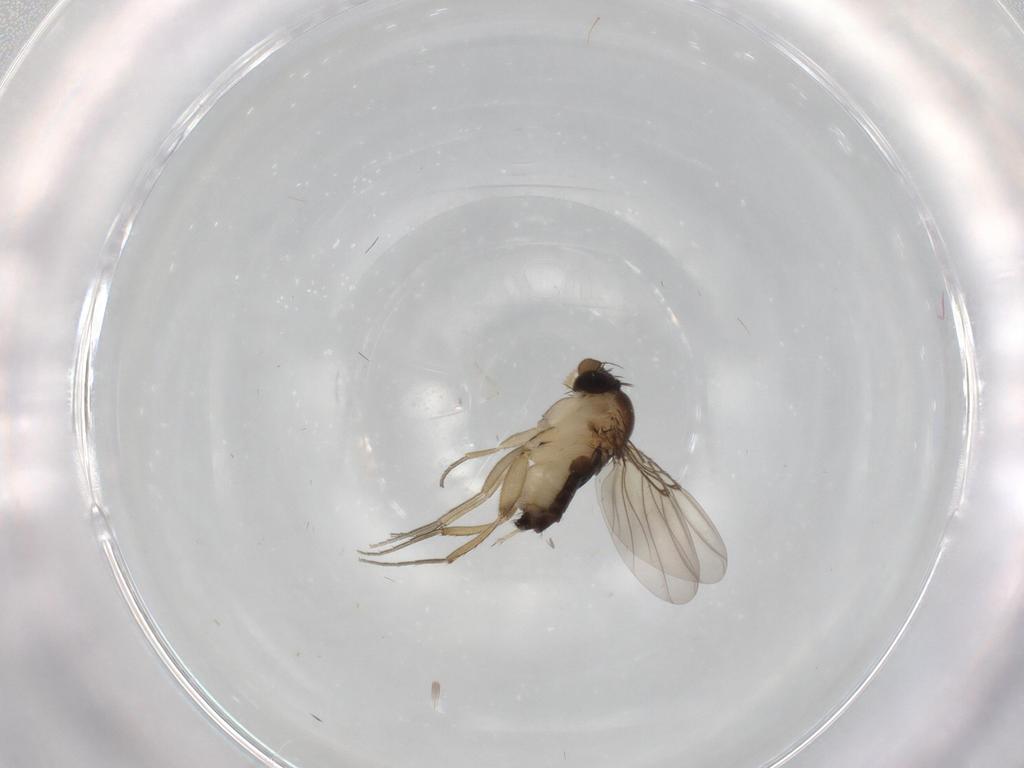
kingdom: Animalia
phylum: Arthropoda
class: Insecta
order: Diptera
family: Phoridae
